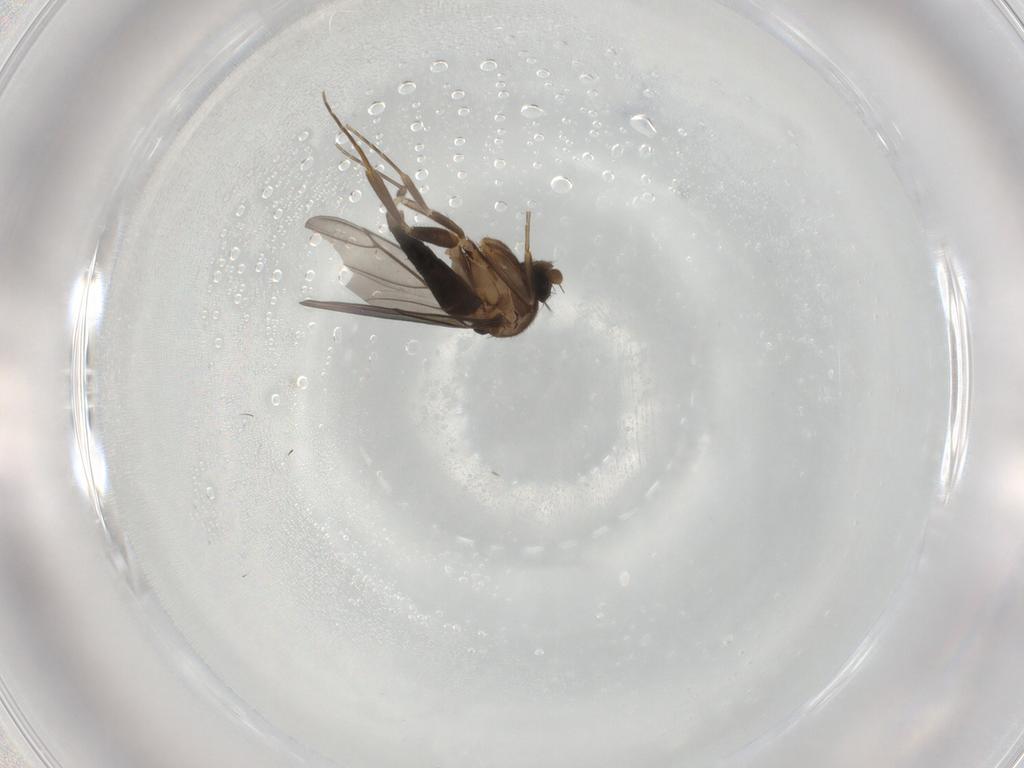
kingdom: Animalia
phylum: Arthropoda
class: Insecta
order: Diptera
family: Phoridae
